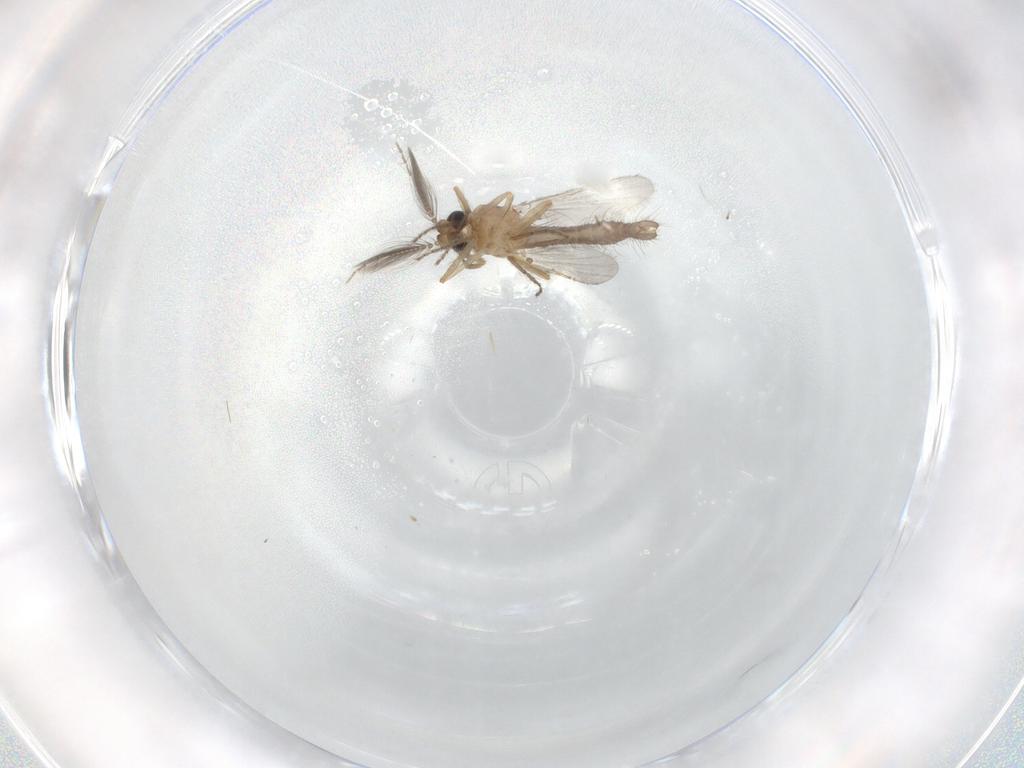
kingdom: Animalia
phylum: Arthropoda
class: Insecta
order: Diptera
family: Ceratopogonidae
